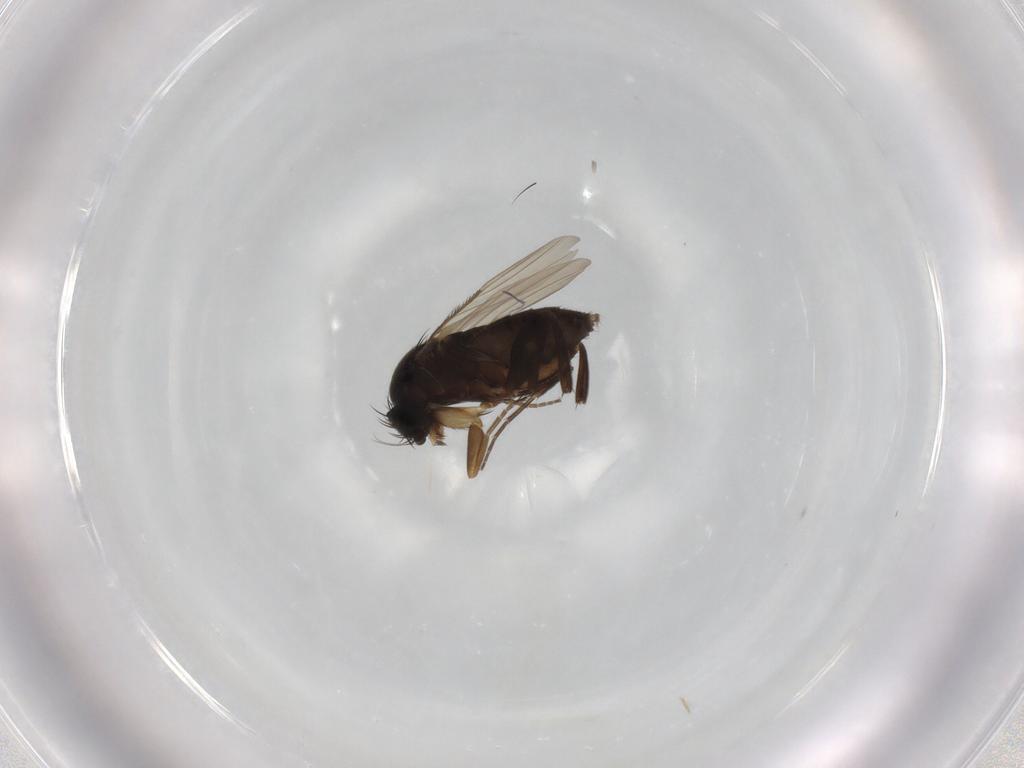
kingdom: Animalia
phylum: Arthropoda
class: Insecta
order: Diptera
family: Phoridae
